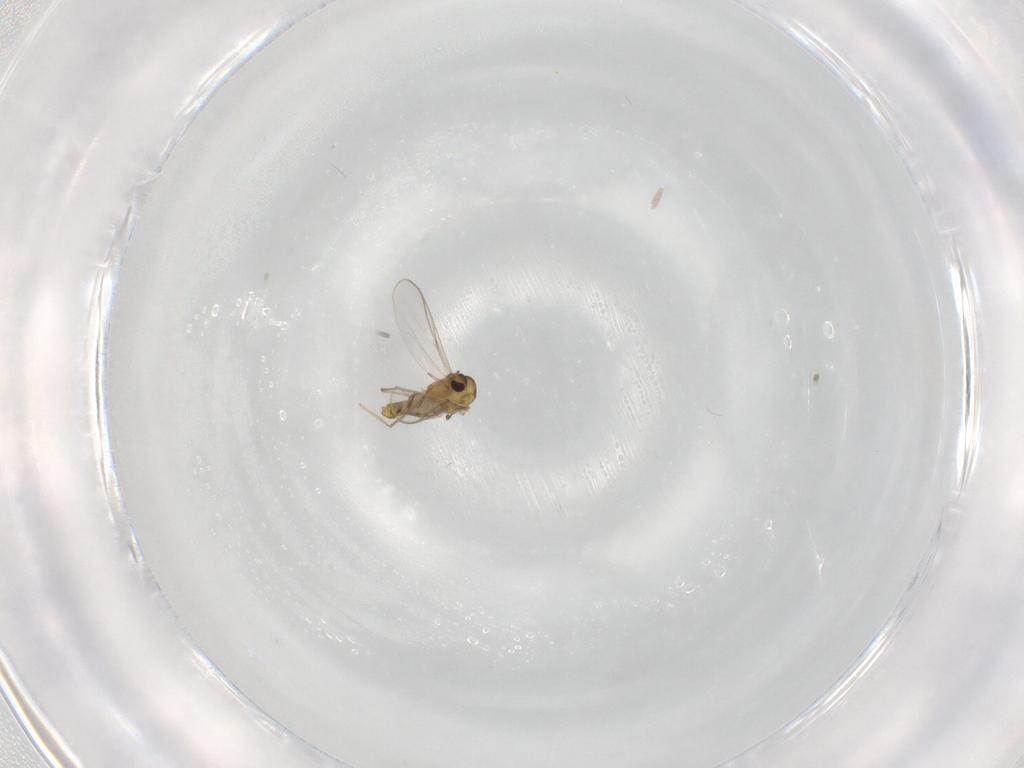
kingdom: Animalia
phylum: Arthropoda
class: Insecta
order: Diptera
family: Chironomidae
